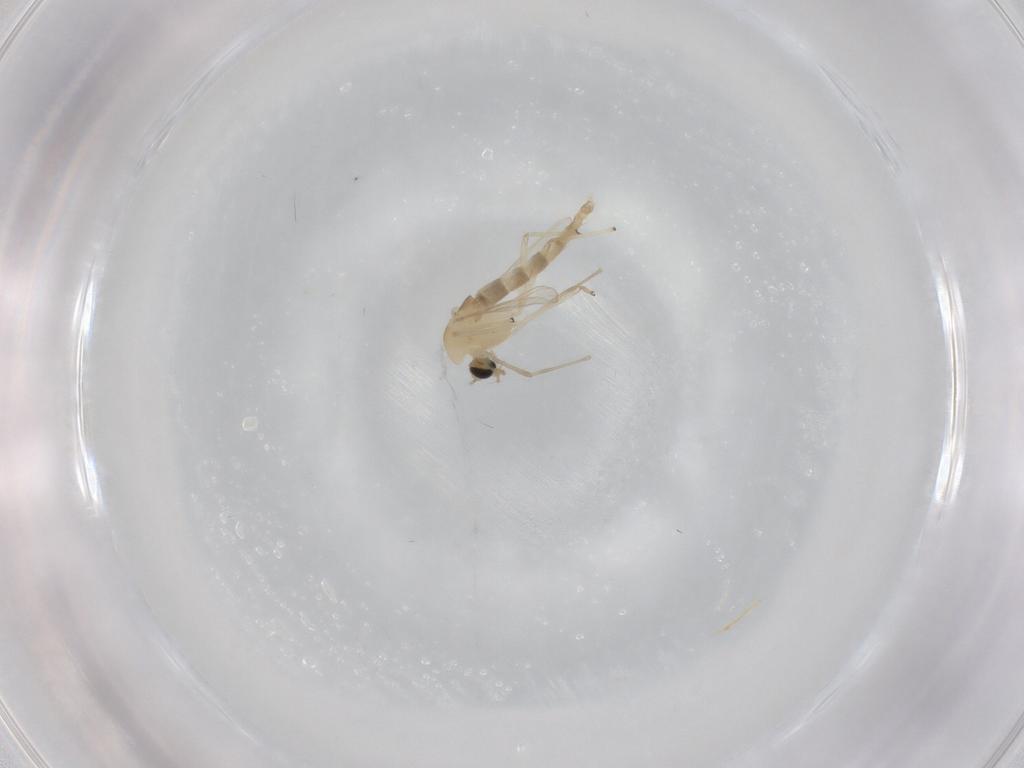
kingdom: Animalia
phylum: Arthropoda
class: Insecta
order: Diptera
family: Chironomidae
